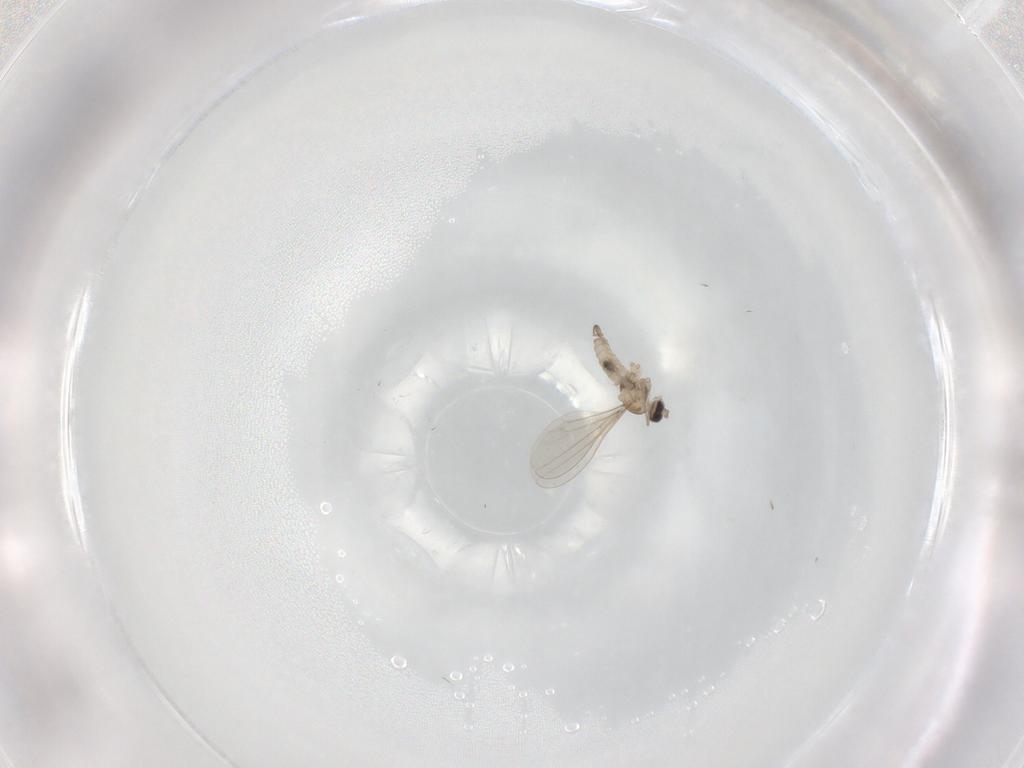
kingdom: Animalia
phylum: Arthropoda
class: Insecta
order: Diptera
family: Cecidomyiidae
